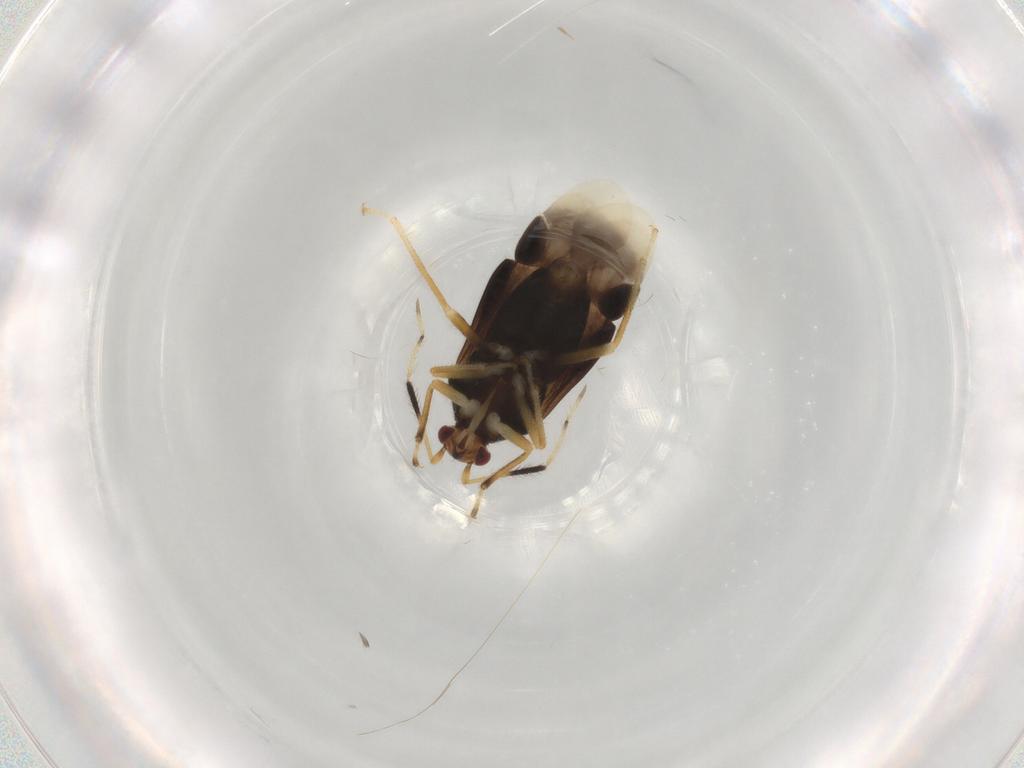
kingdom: Animalia
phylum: Arthropoda
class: Insecta
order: Hemiptera
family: Miridae
